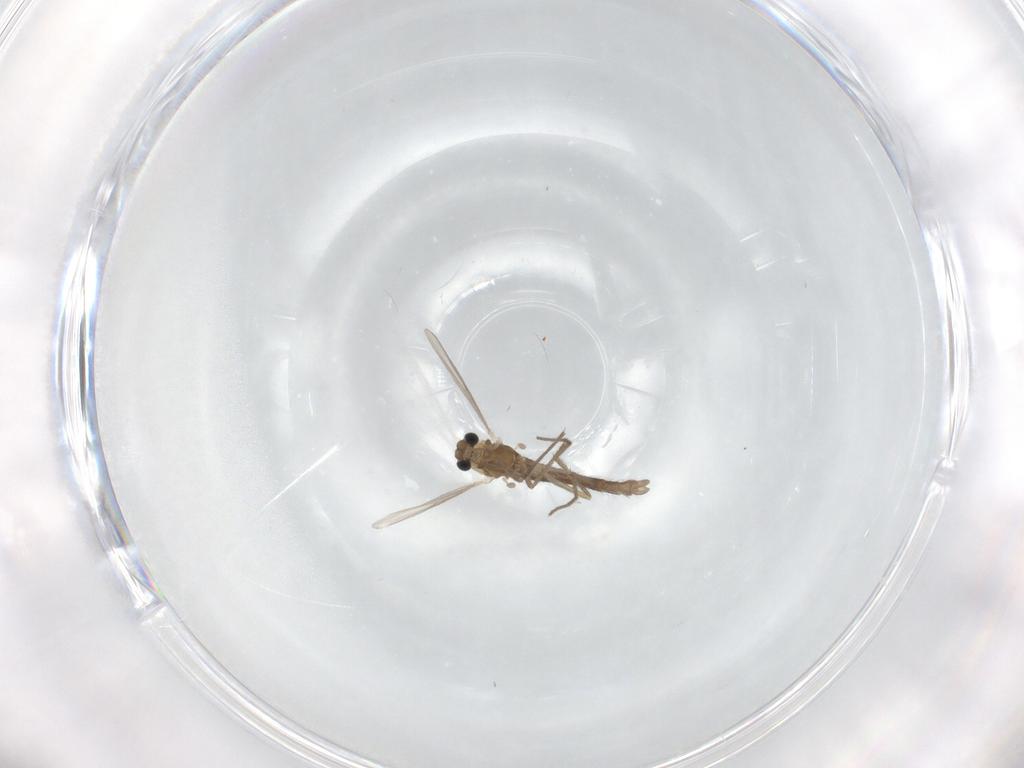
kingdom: Animalia
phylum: Arthropoda
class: Insecta
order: Diptera
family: Chironomidae
